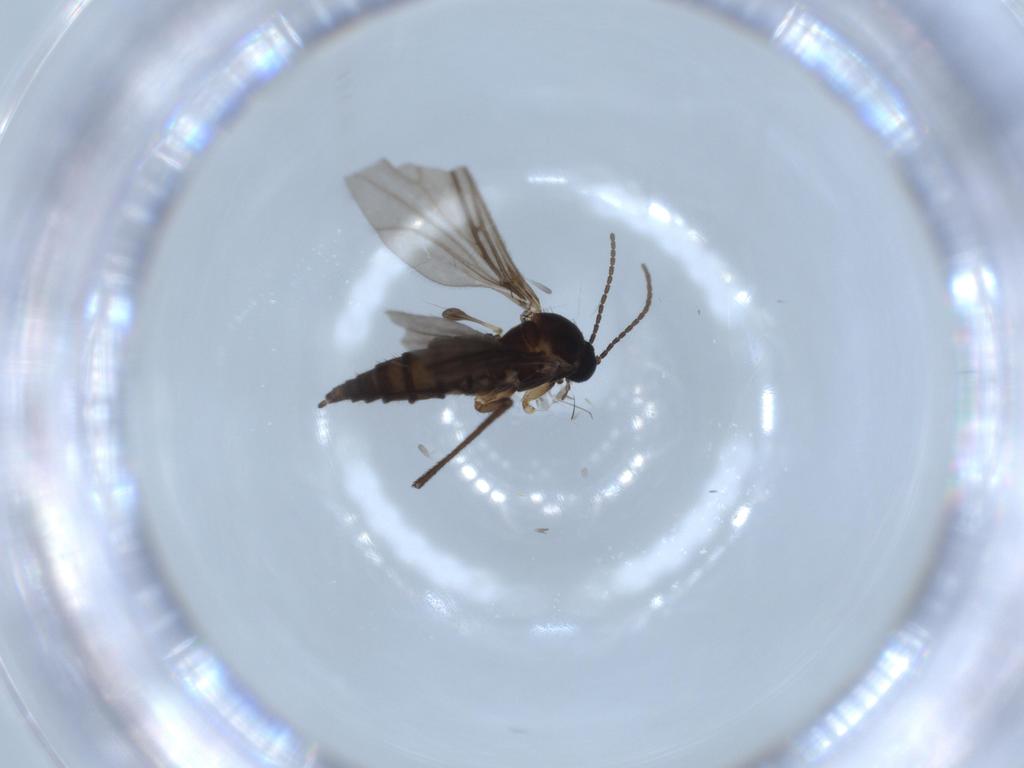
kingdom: Animalia
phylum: Arthropoda
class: Insecta
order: Diptera
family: Sciaridae
